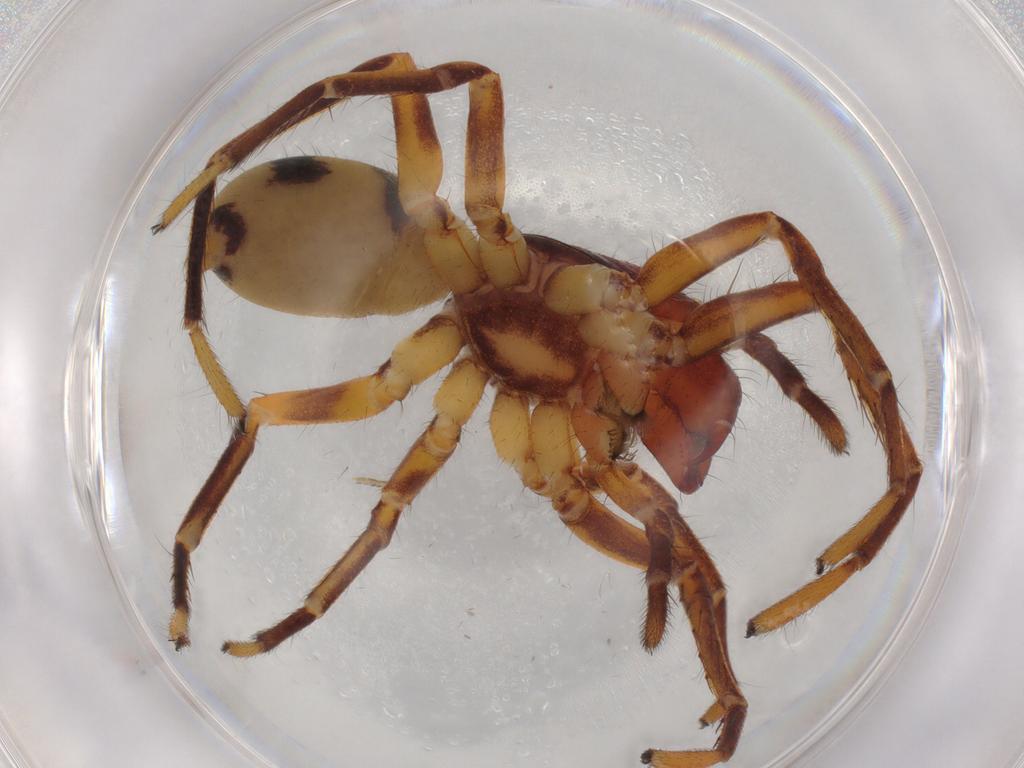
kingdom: Animalia
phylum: Arthropoda
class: Arachnida
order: Araneae
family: Corinnidae
